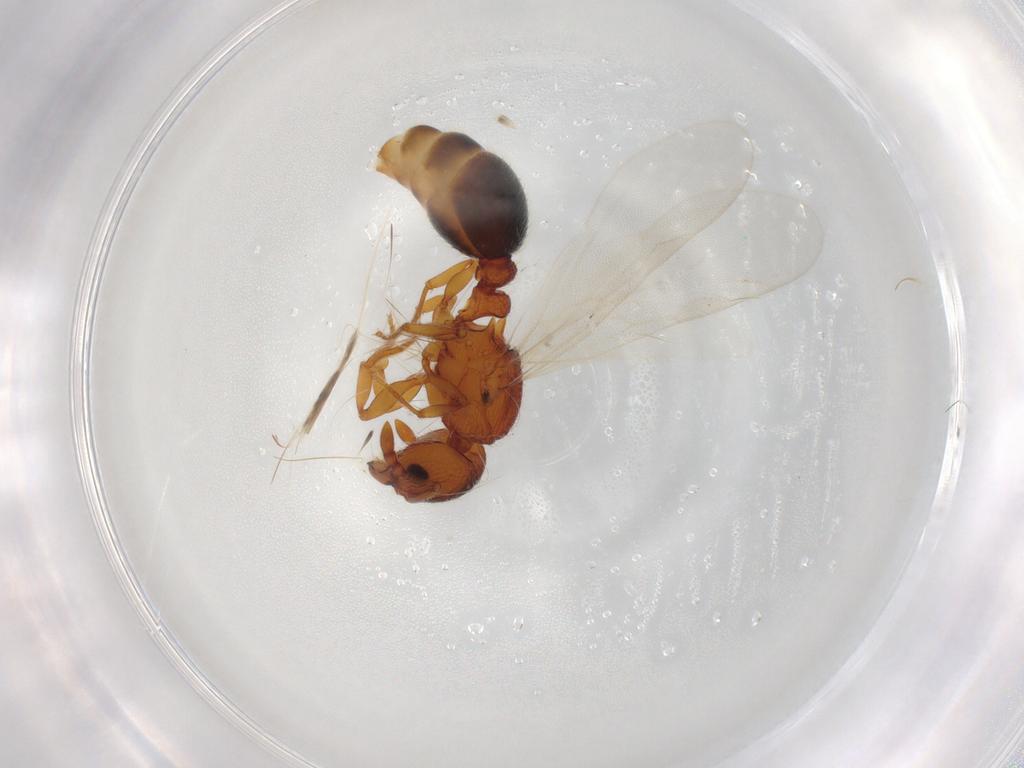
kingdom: Animalia
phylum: Arthropoda
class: Insecta
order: Hymenoptera
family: Formicidae
